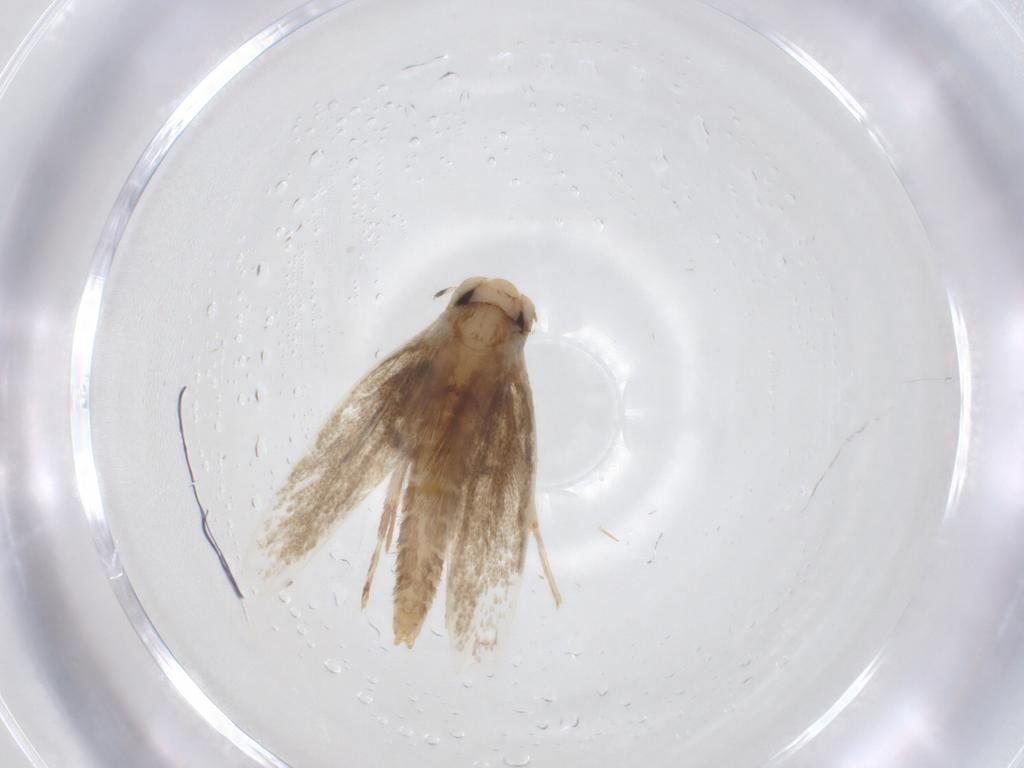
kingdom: Animalia
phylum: Arthropoda
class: Insecta
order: Lepidoptera
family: Tineidae
